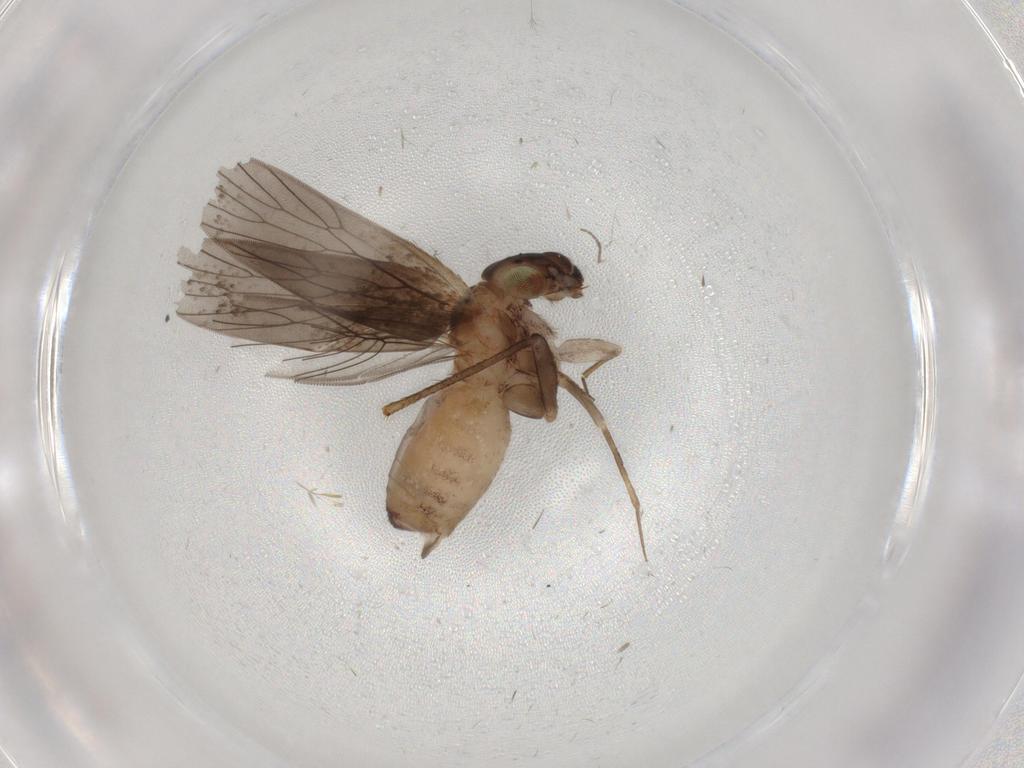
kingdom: Animalia
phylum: Arthropoda
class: Insecta
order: Psocodea
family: Lepidopsocidae
